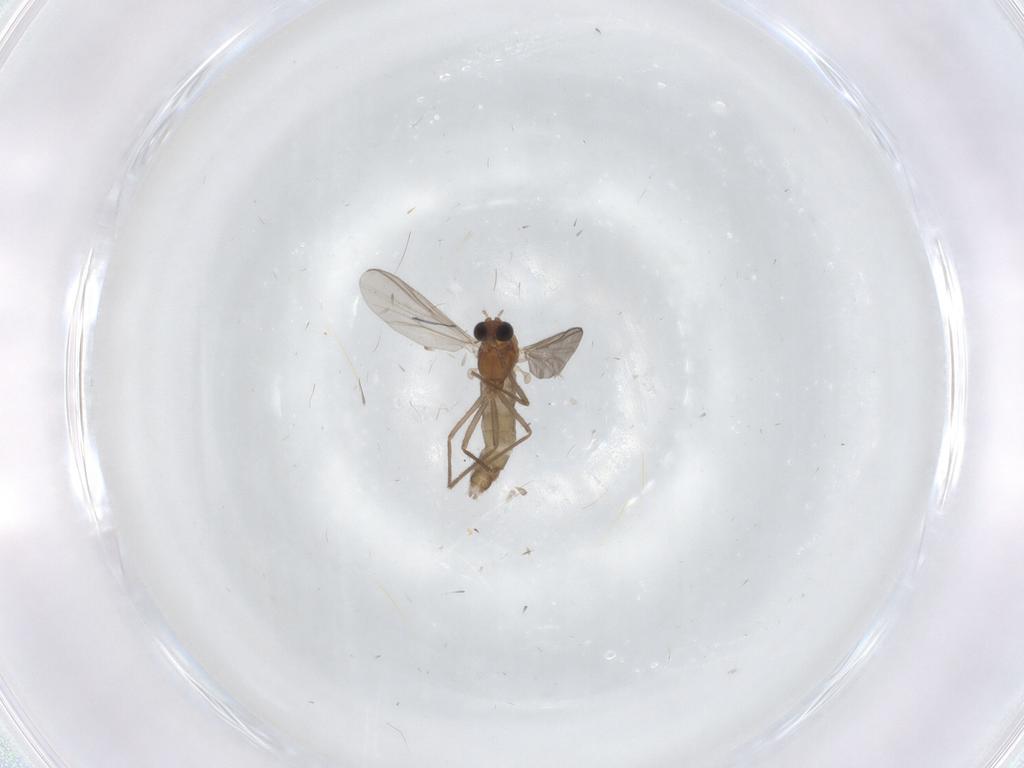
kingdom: Animalia
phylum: Arthropoda
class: Insecta
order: Diptera
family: Chironomidae
